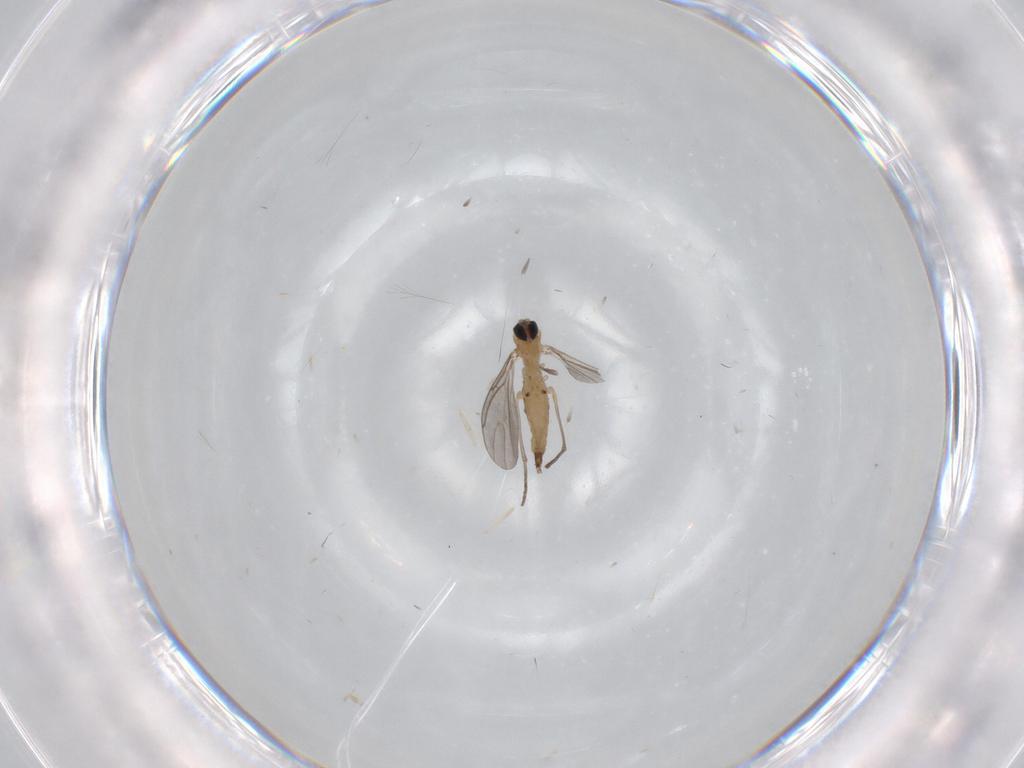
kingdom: Animalia
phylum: Arthropoda
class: Insecta
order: Diptera
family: Sciaridae
